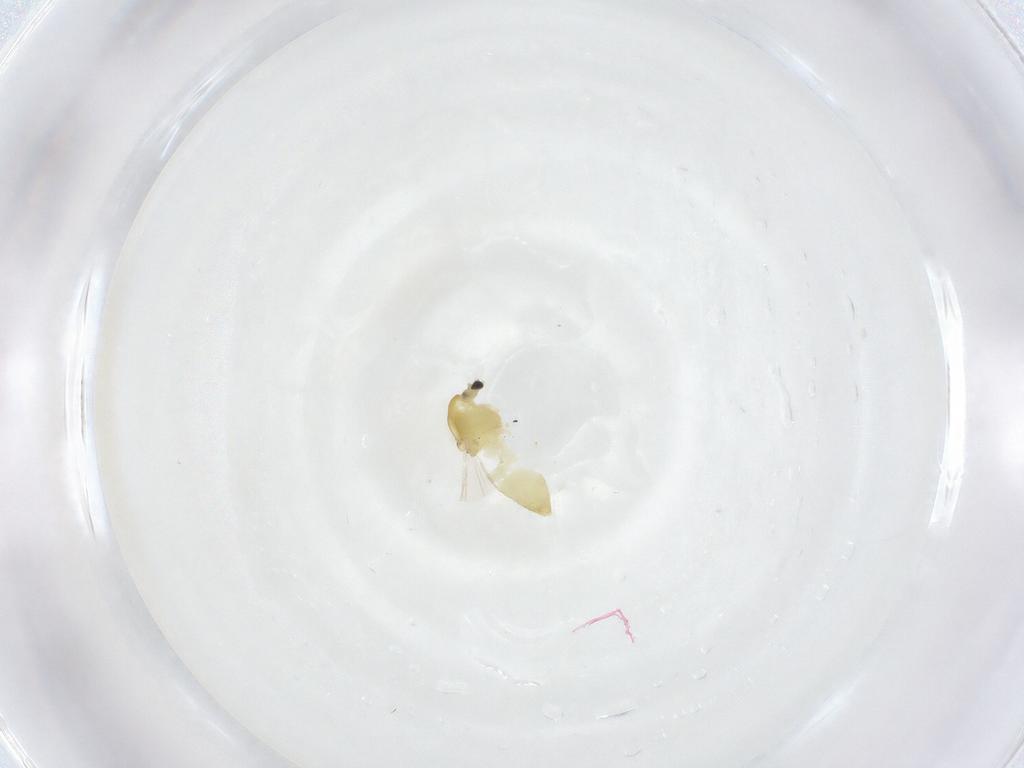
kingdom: Animalia
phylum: Arthropoda
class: Insecta
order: Diptera
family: Chironomidae
